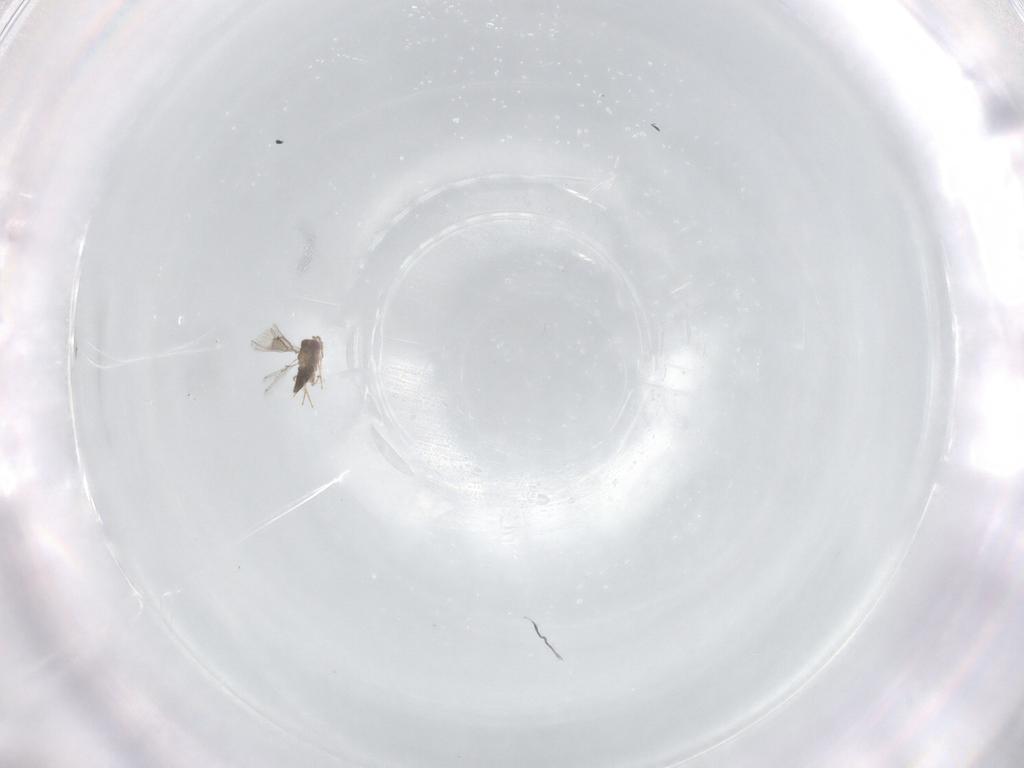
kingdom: Animalia
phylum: Arthropoda
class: Insecta
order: Hymenoptera
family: Trichogrammatidae
